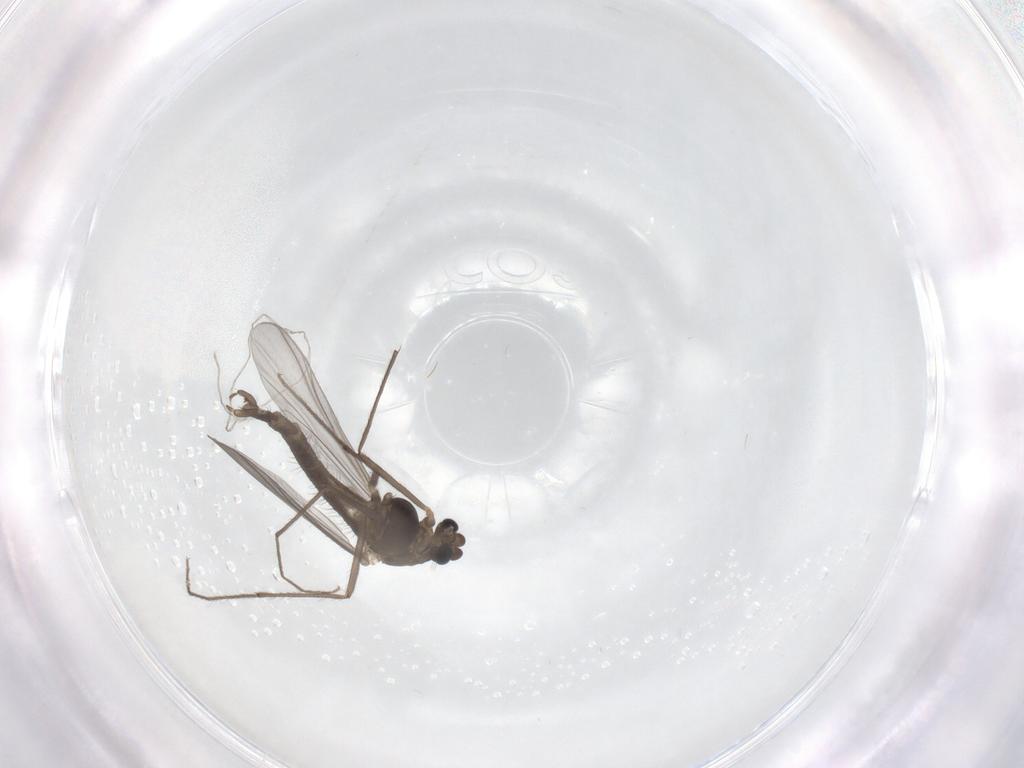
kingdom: Animalia
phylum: Arthropoda
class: Insecta
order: Diptera
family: Chironomidae
